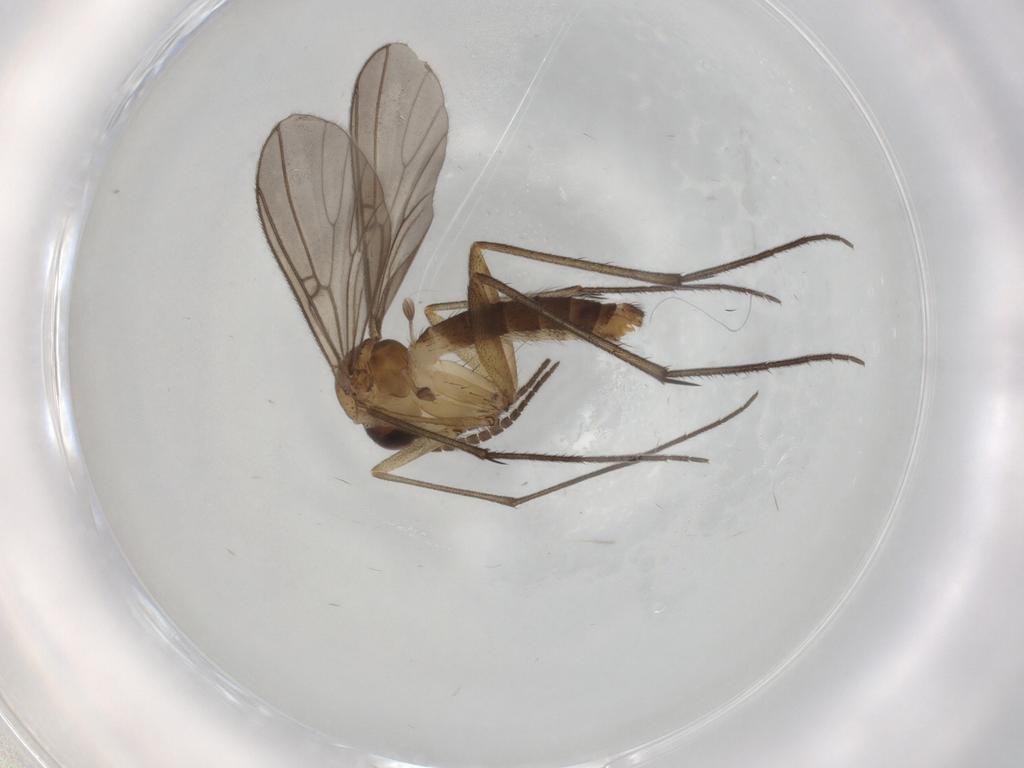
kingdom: Animalia
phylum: Arthropoda
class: Insecta
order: Diptera
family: Mycetophilidae
